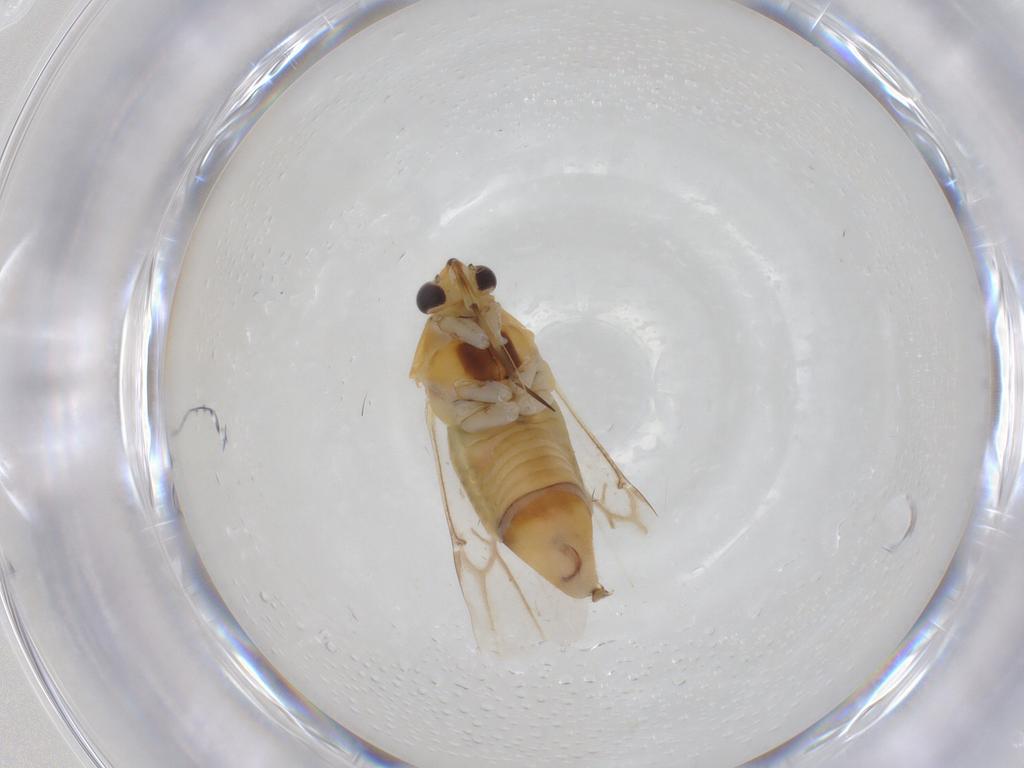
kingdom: Animalia
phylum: Arthropoda
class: Insecta
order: Hemiptera
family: Miridae
